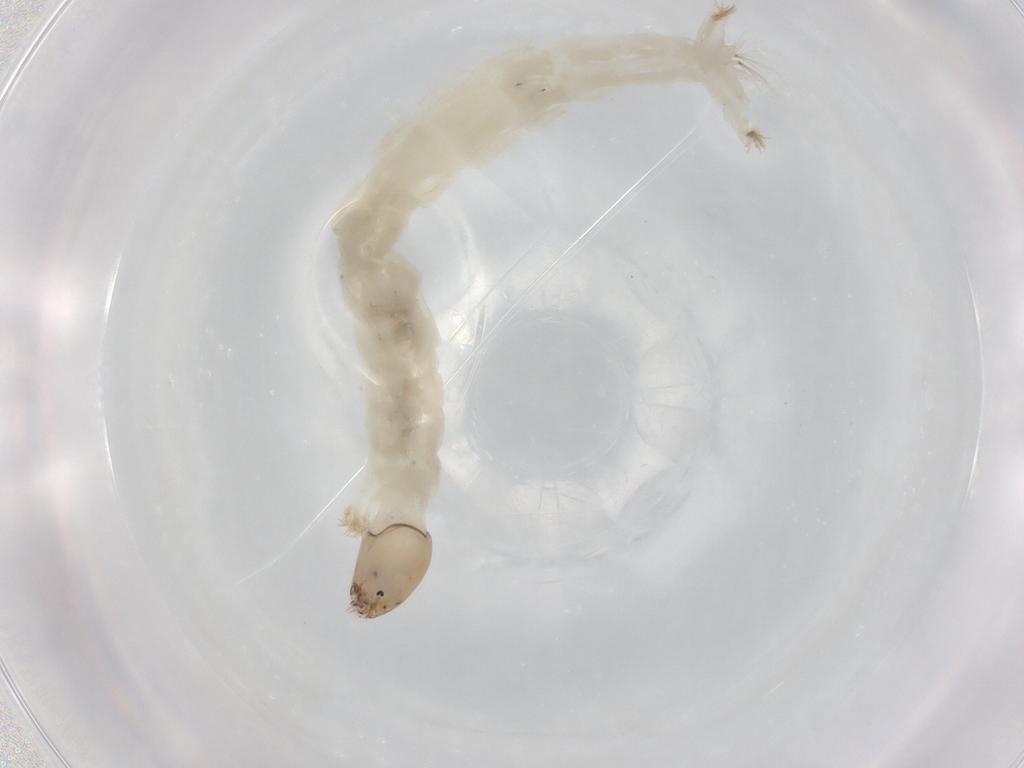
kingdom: Animalia
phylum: Arthropoda
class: Insecta
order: Diptera
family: Chironomidae
